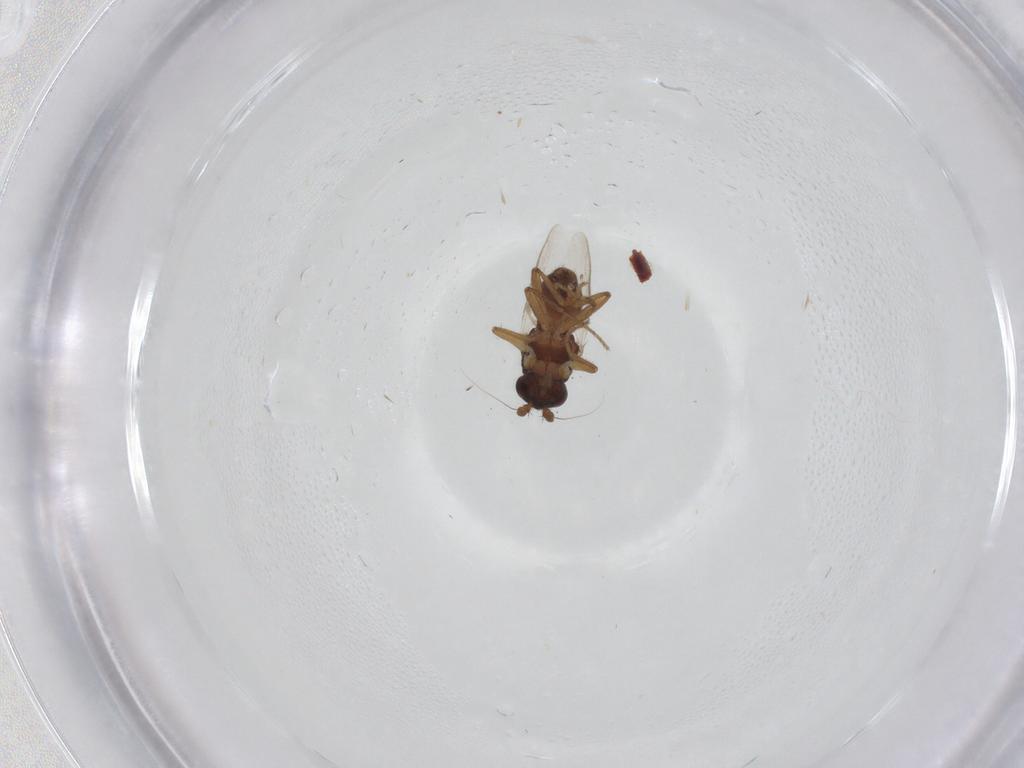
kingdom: Animalia
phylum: Arthropoda
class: Insecta
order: Diptera
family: Sphaeroceridae
